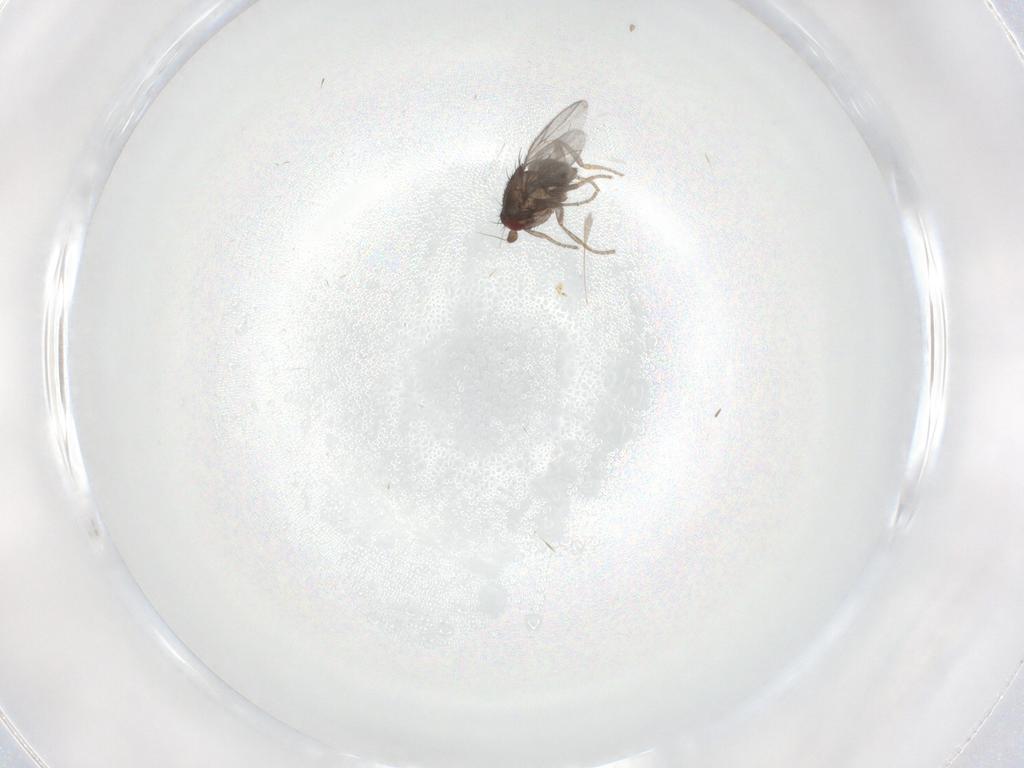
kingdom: Animalia
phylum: Arthropoda
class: Insecta
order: Diptera
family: Sphaeroceridae
